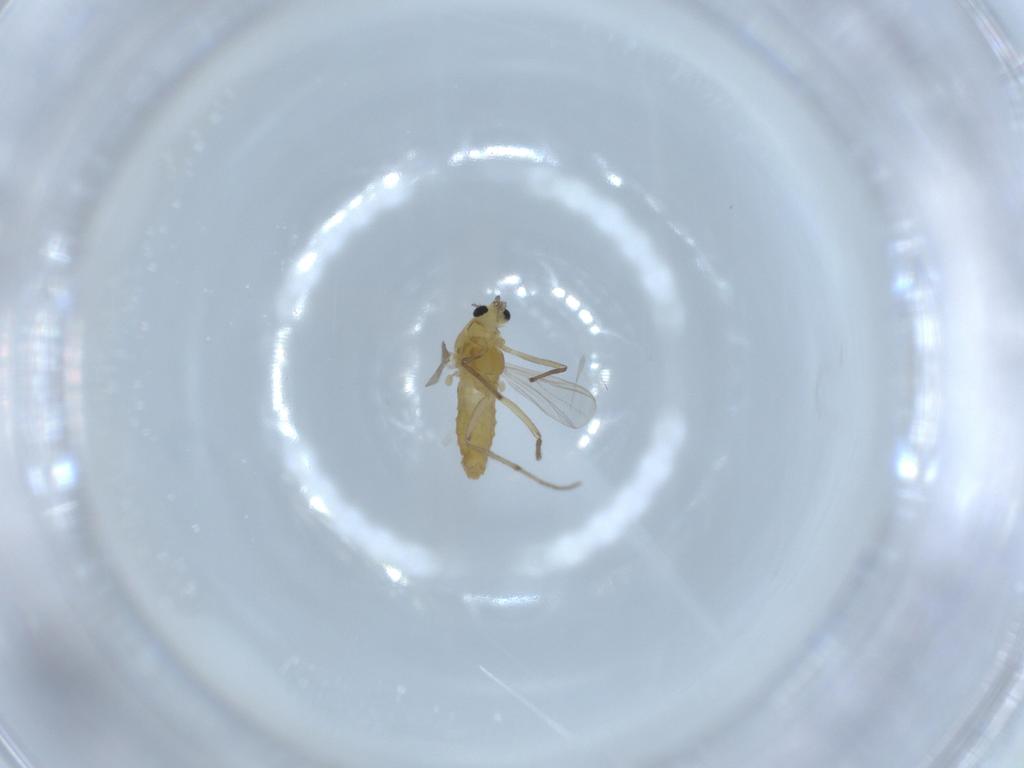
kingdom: Animalia
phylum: Arthropoda
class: Insecta
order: Diptera
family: Chironomidae
